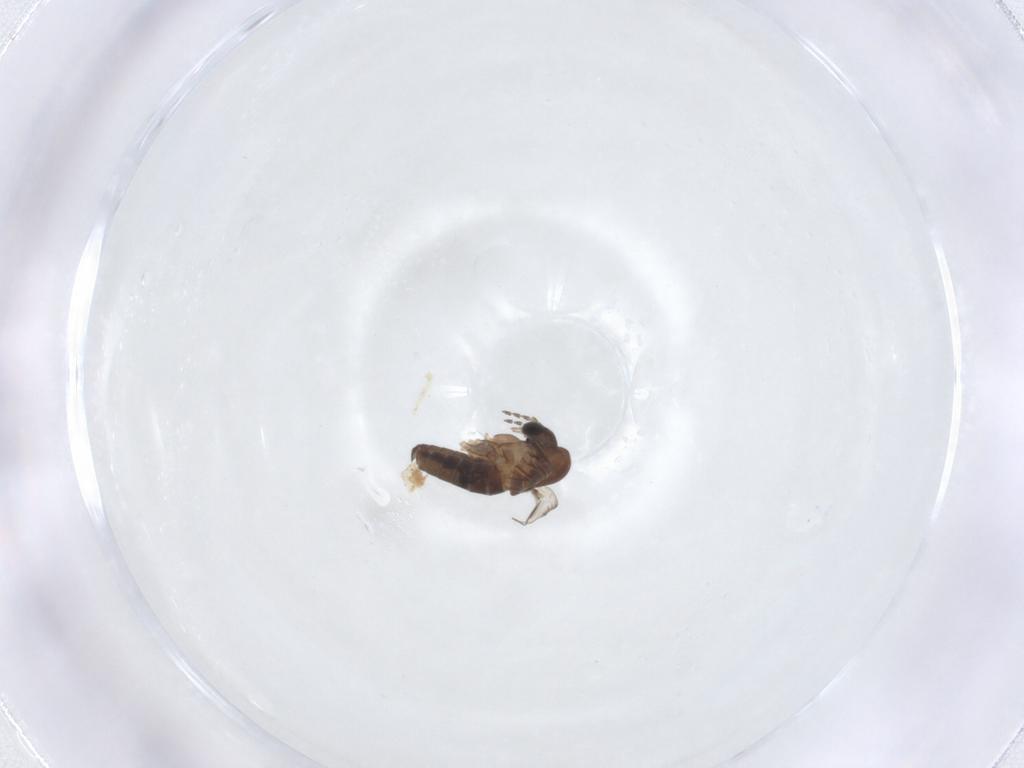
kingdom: Animalia
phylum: Arthropoda
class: Insecta
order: Diptera
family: Psychodidae
